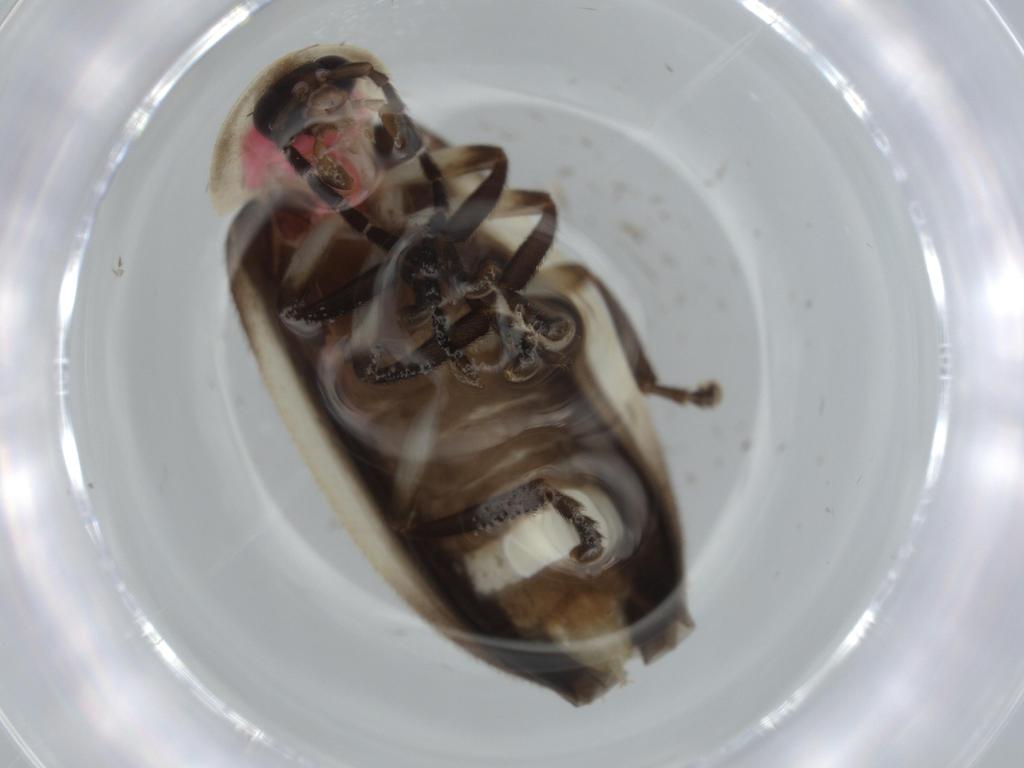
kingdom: Animalia
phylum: Arthropoda
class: Insecta
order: Coleoptera
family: Lampyridae
